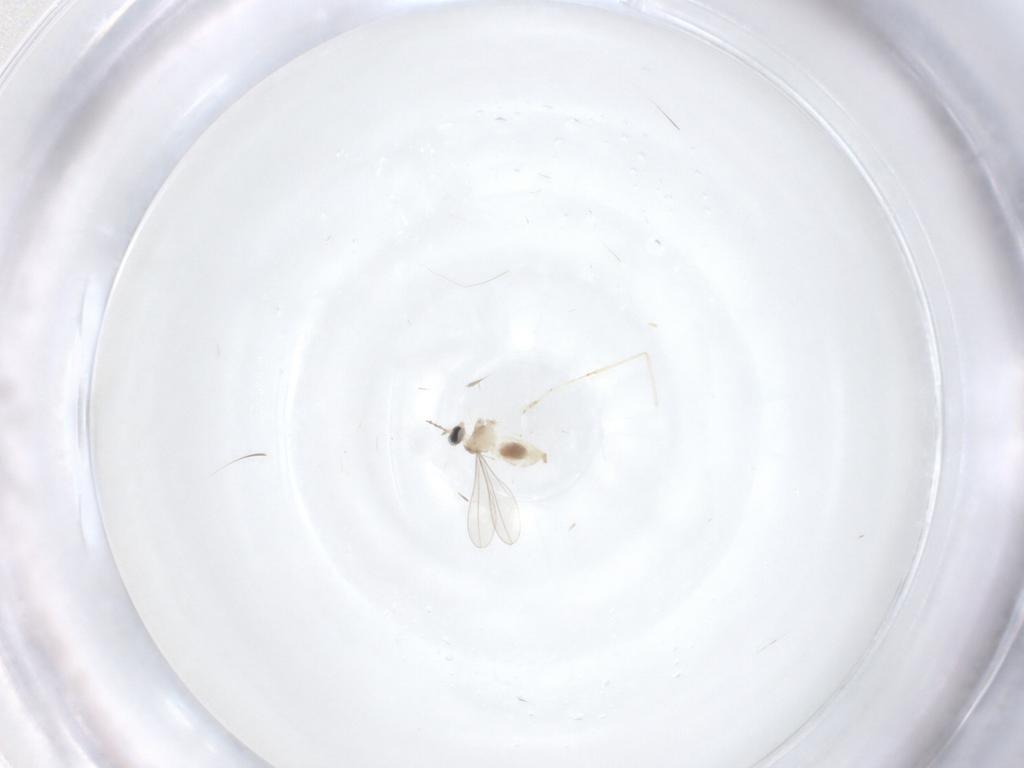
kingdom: Animalia
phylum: Arthropoda
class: Insecta
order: Diptera
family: Cecidomyiidae
